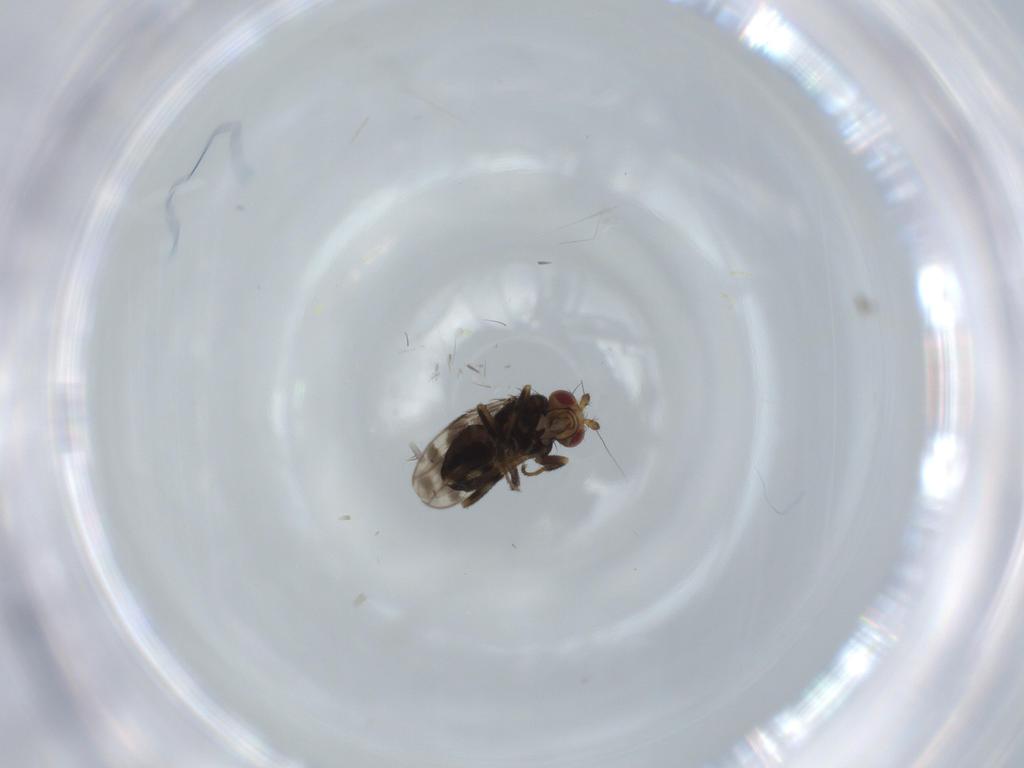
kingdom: Animalia
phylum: Arthropoda
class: Insecta
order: Diptera
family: Sphaeroceridae
